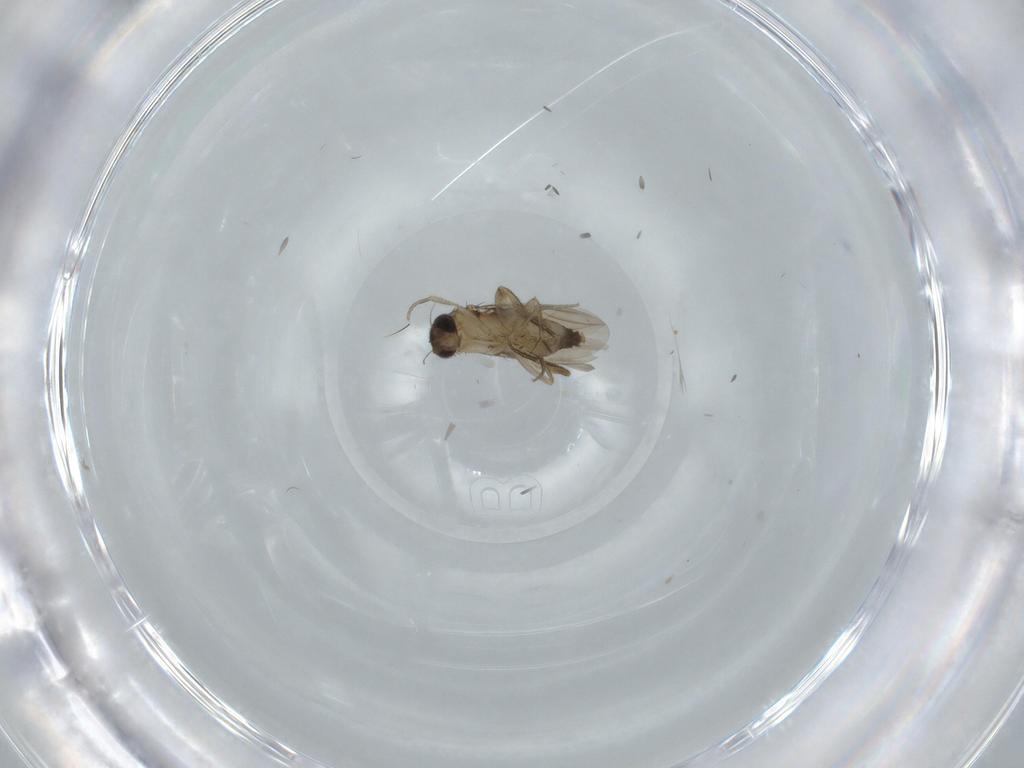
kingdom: Animalia
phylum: Arthropoda
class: Insecta
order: Diptera
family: Phoridae
